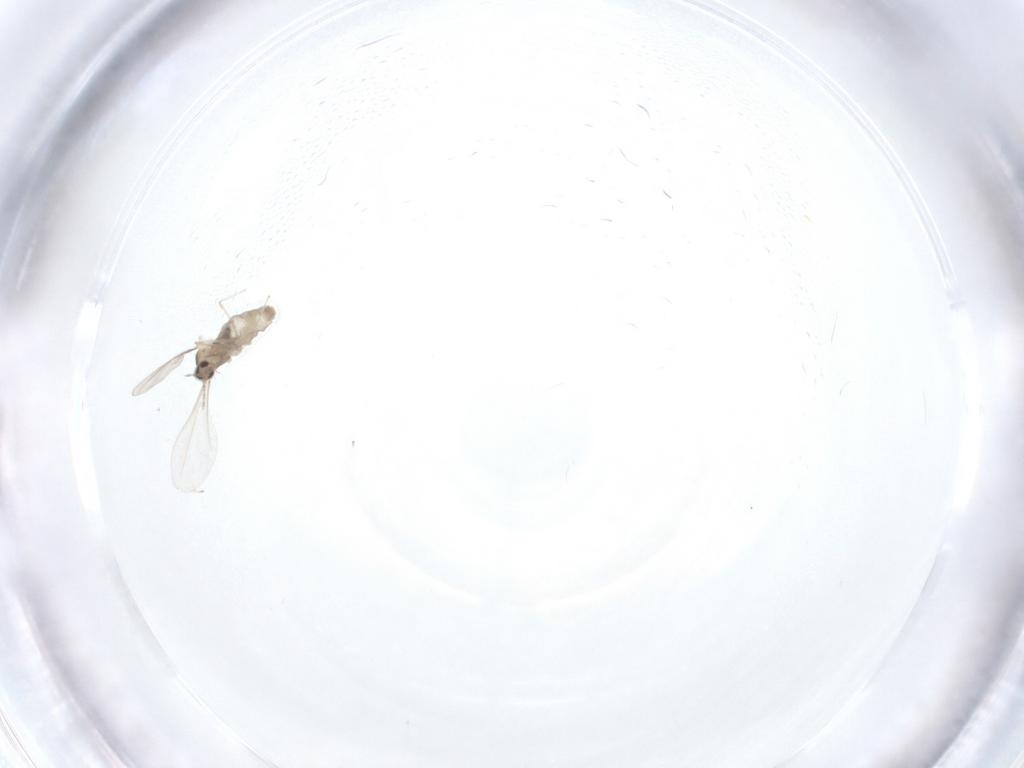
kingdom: Animalia
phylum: Arthropoda
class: Insecta
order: Diptera
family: Cecidomyiidae
